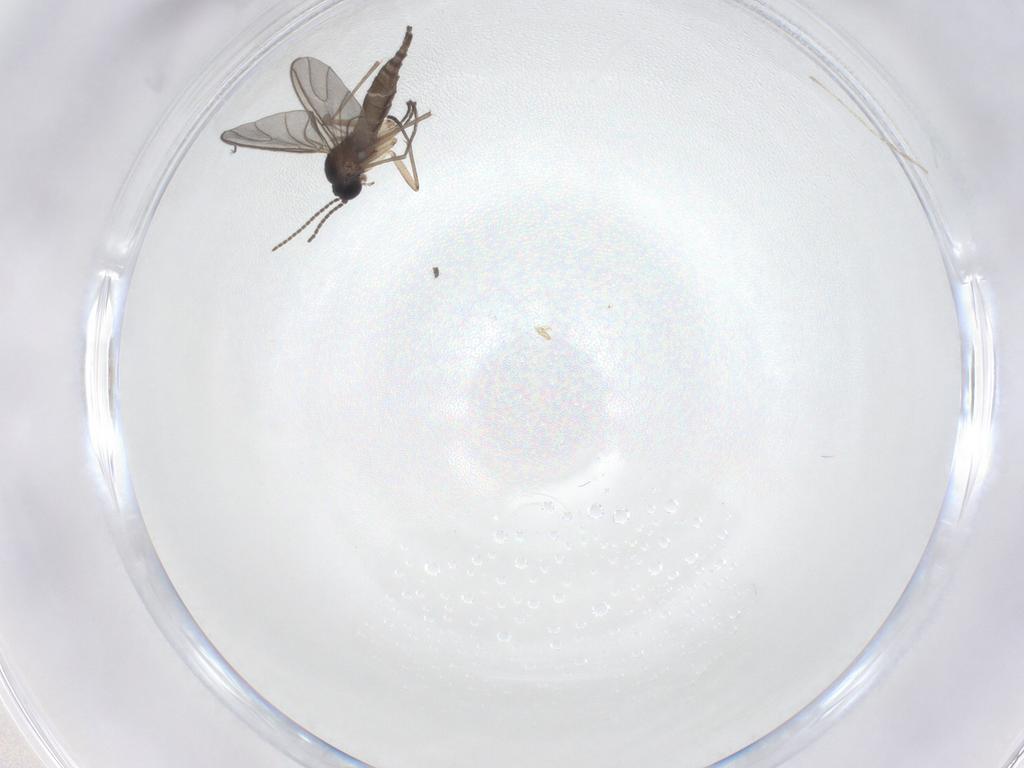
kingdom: Animalia
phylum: Arthropoda
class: Insecta
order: Diptera
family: Sciaridae
